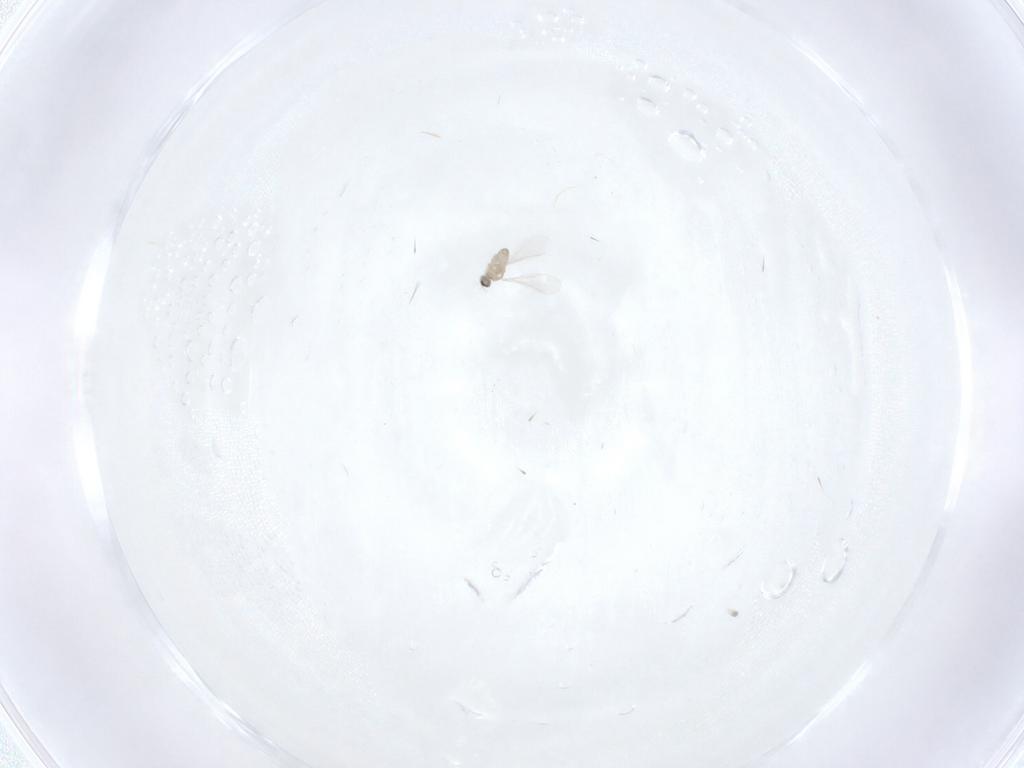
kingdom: Animalia
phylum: Arthropoda
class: Insecta
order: Diptera
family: Cecidomyiidae
